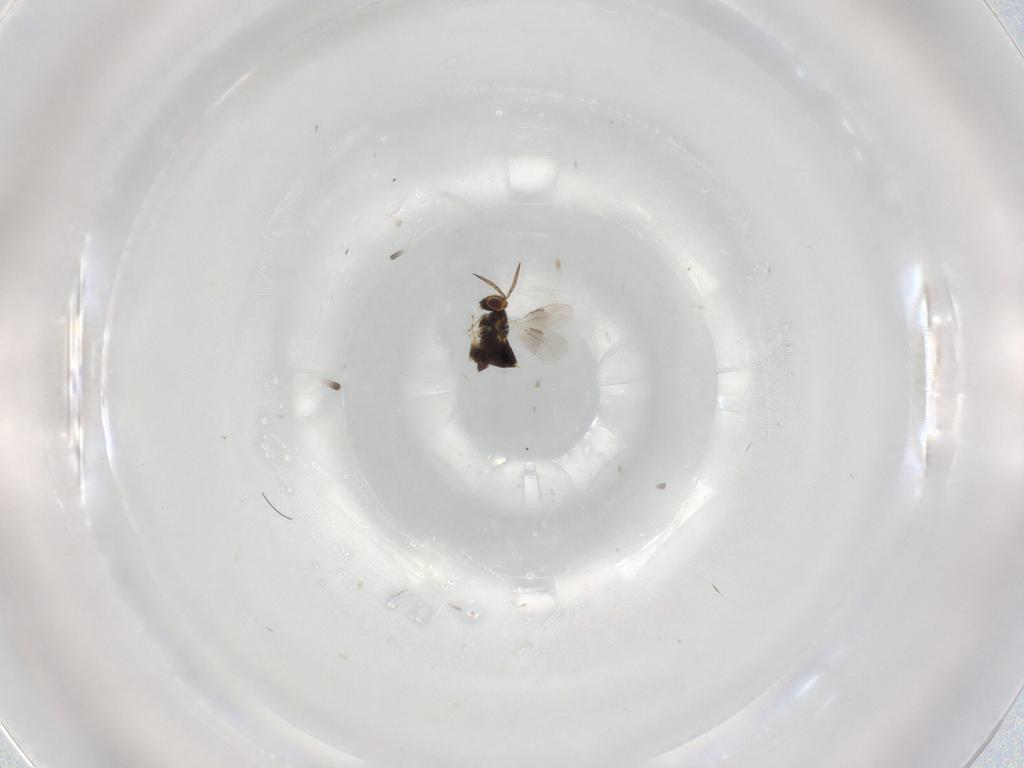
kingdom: Animalia
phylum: Arthropoda
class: Insecta
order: Hymenoptera
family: Aphelinidae
